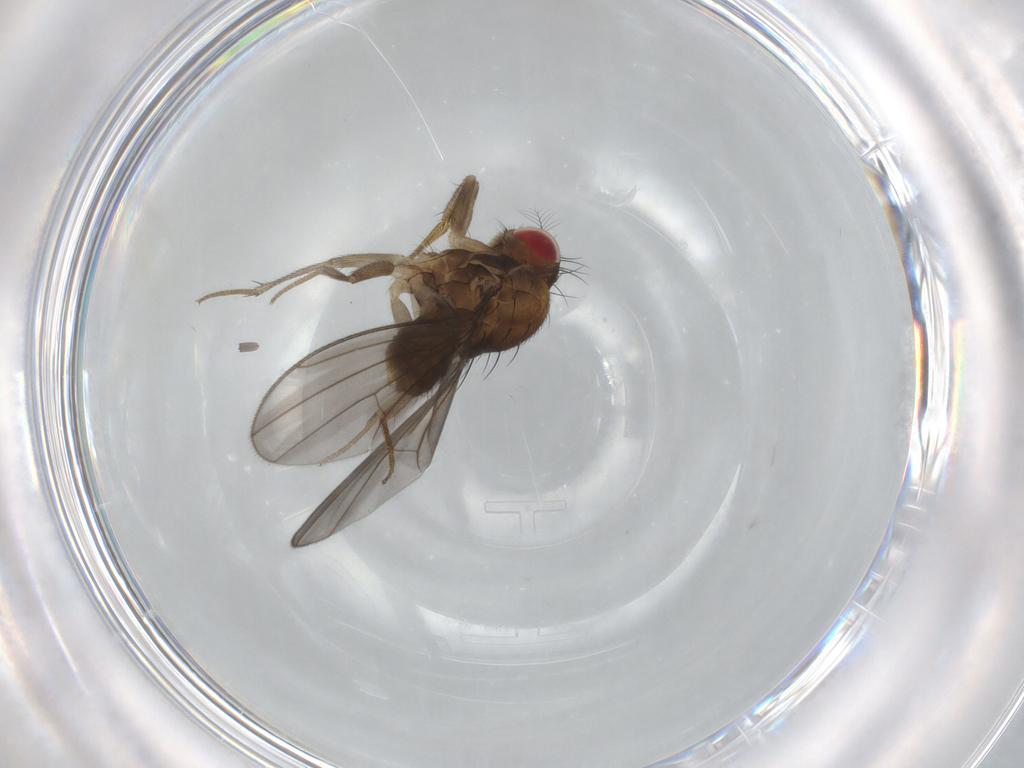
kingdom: Animalia
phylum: Arthropoda
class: Insecta
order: Diptera
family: Drosophilidae
